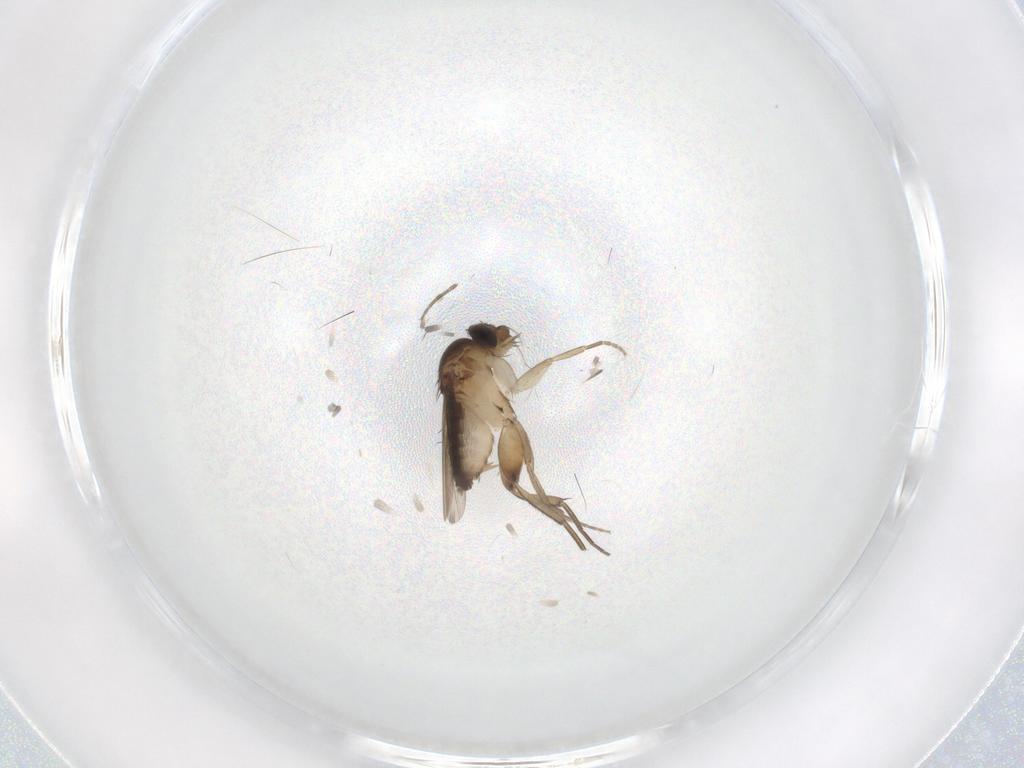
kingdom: Animalia
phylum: Arthropoda
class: Insecta
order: Diptera
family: Phoridae
